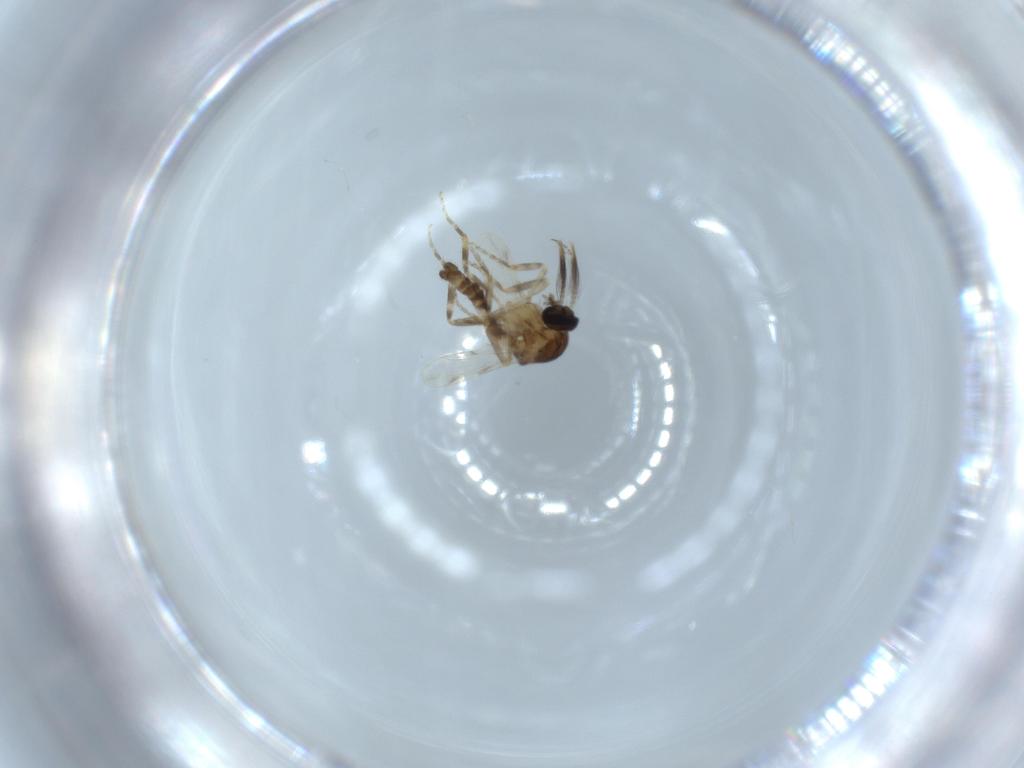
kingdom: Animalia
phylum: Arthropoda
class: Insecta
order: Diptera
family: Ceratopogonidae
